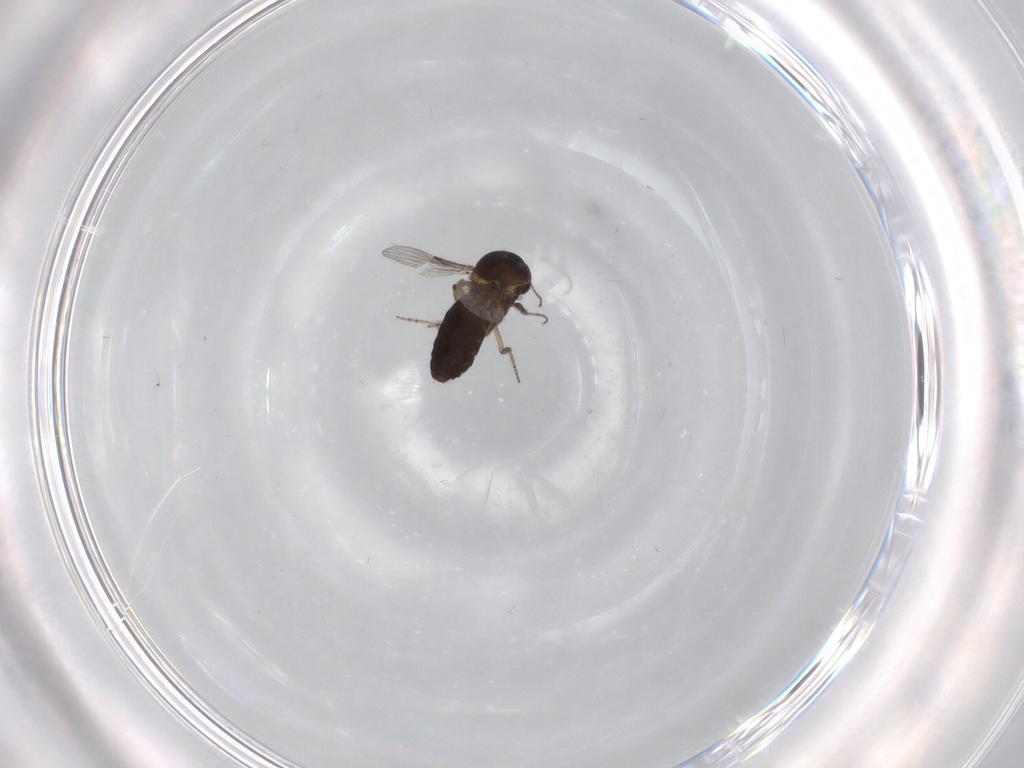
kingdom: Animalia
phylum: Arthropoda
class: Insecta
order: Diptera
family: Ceratopogonidae
